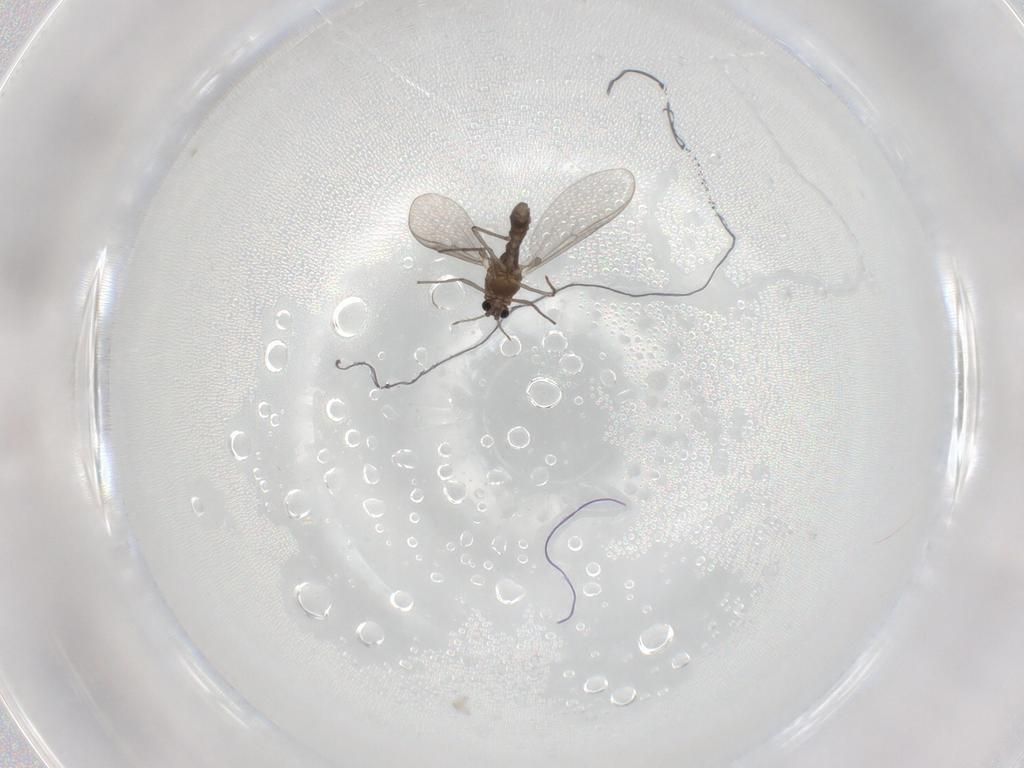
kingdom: Animalia
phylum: Arthropoda
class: Insecta
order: Diptera
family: Chironomidae
